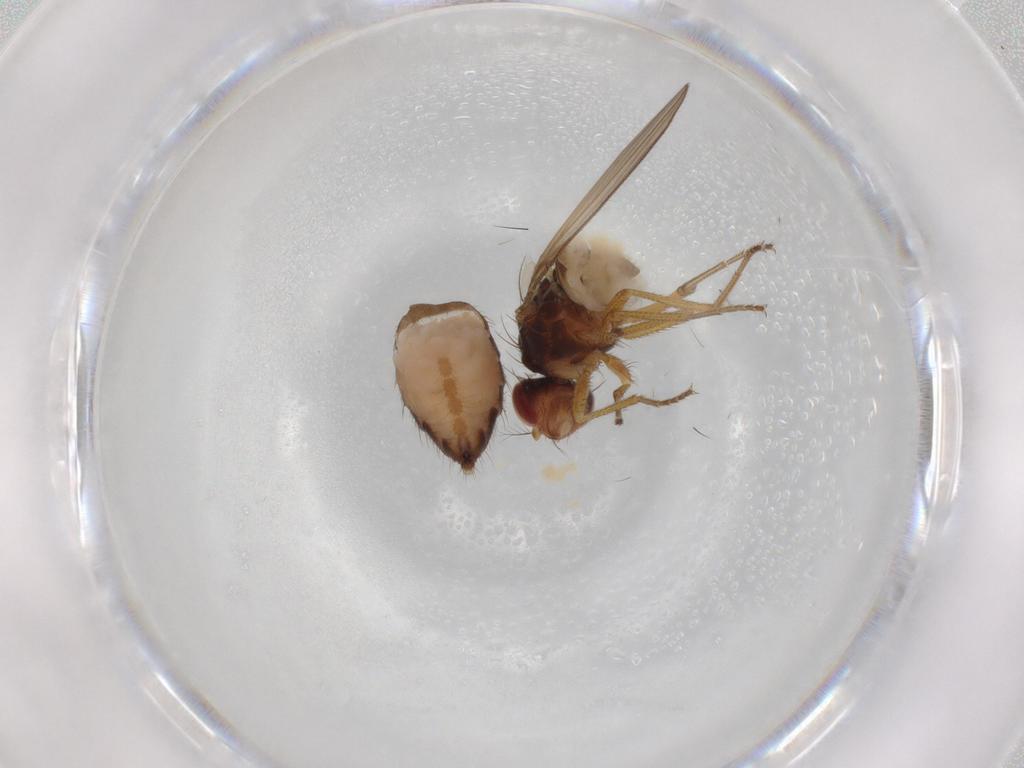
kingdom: Animalia
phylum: Arthropoda
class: Insecta
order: Diptera
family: Drosophilidae
